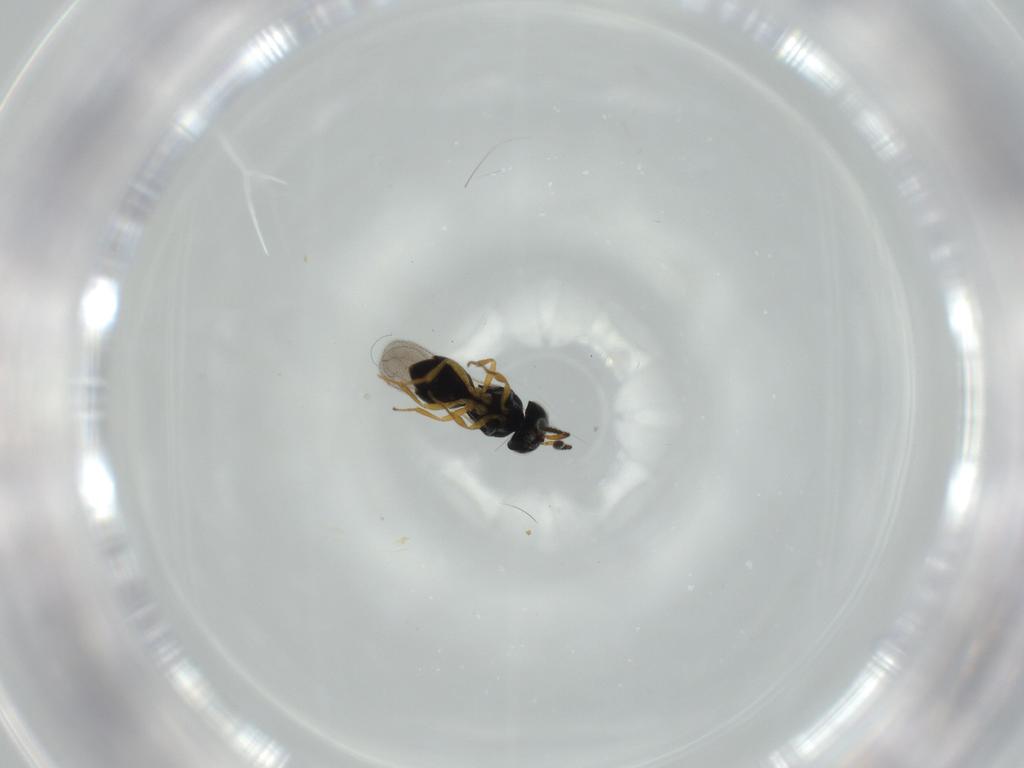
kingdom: Animalia
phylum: Arthropoda
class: Insecta
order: Hymenoptera
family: Scelionidae
